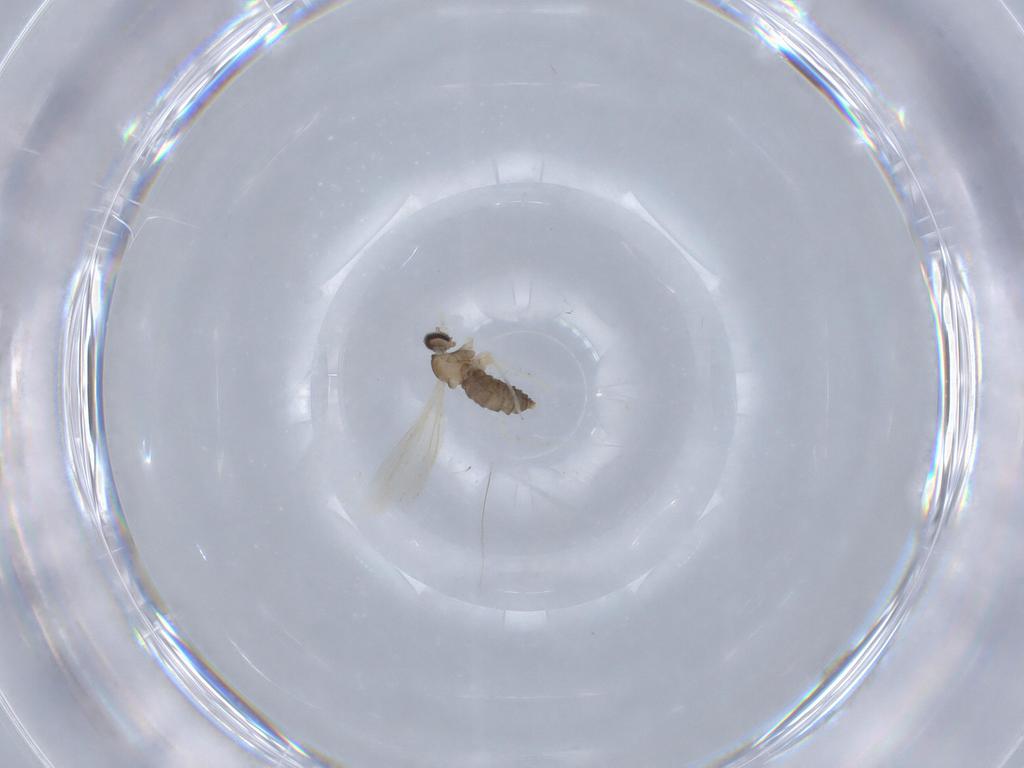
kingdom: Animalia
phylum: Arthropoda
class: Insecta
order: Diptera
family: Cecidomyiidae
